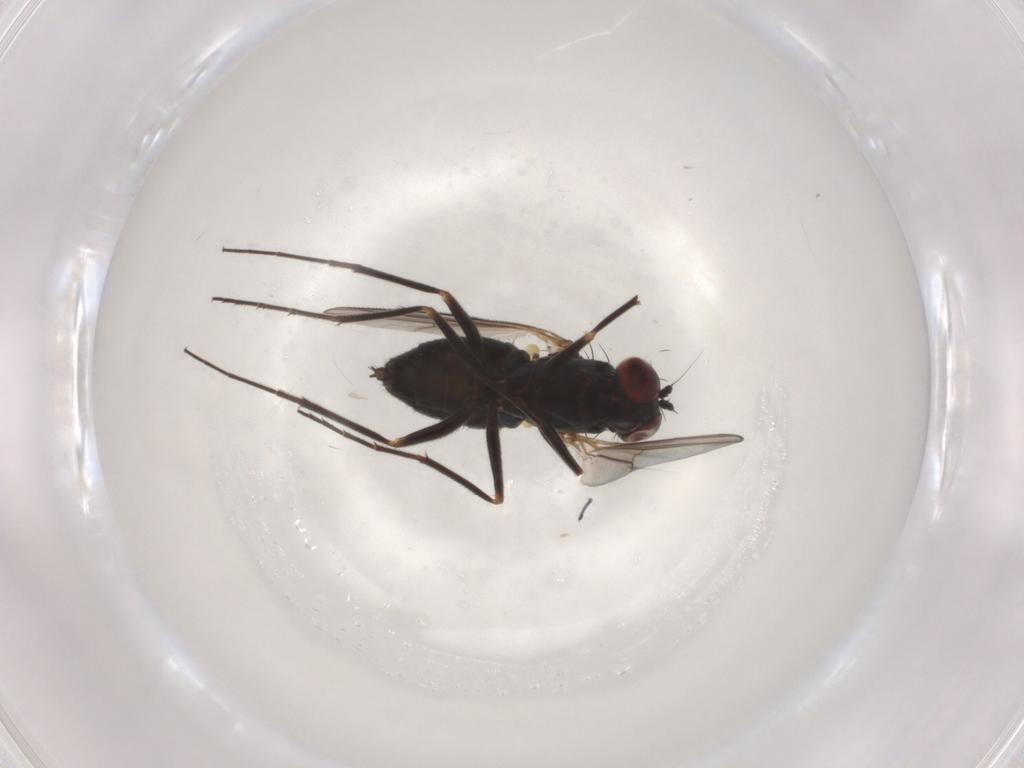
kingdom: Animalia
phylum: Arthropoda
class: Insecta
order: Diptera
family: Dolichopodidae
